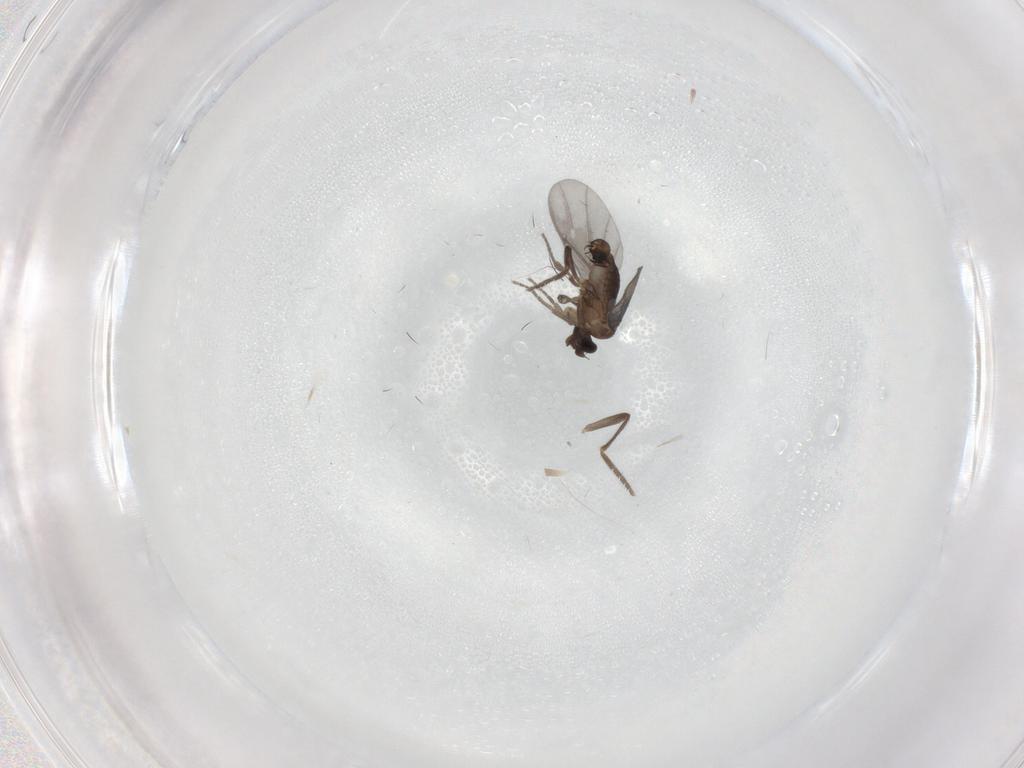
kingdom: Animalia
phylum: Arthropoda
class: Insecta
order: Diptera
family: Phoridae
